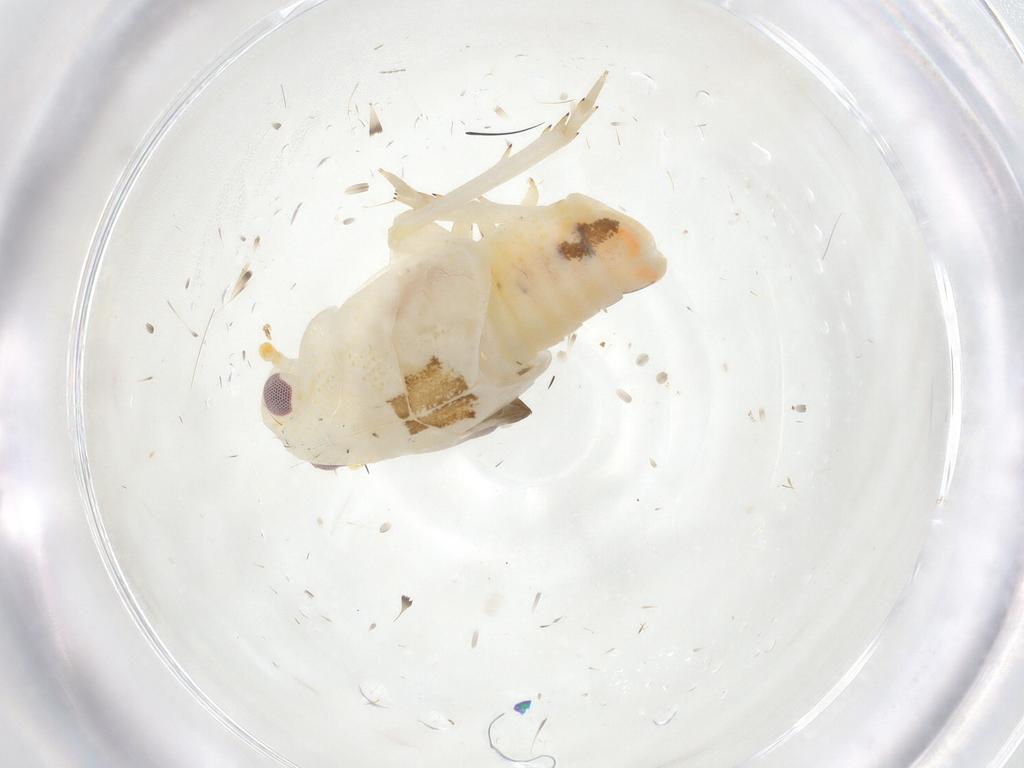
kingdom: Animalia
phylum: Arthropoda
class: Insecta
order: Hemiptera
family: Flatidae
